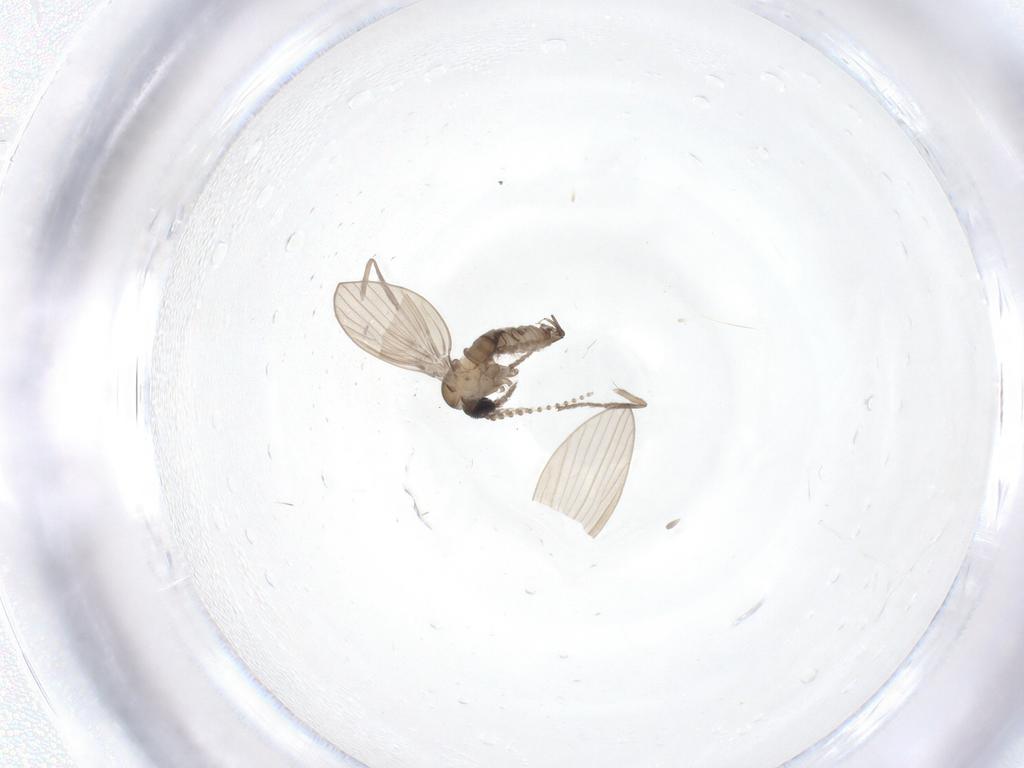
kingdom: Animalia
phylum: Arthropoda
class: Insecta
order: Diptera
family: Psychodidae
